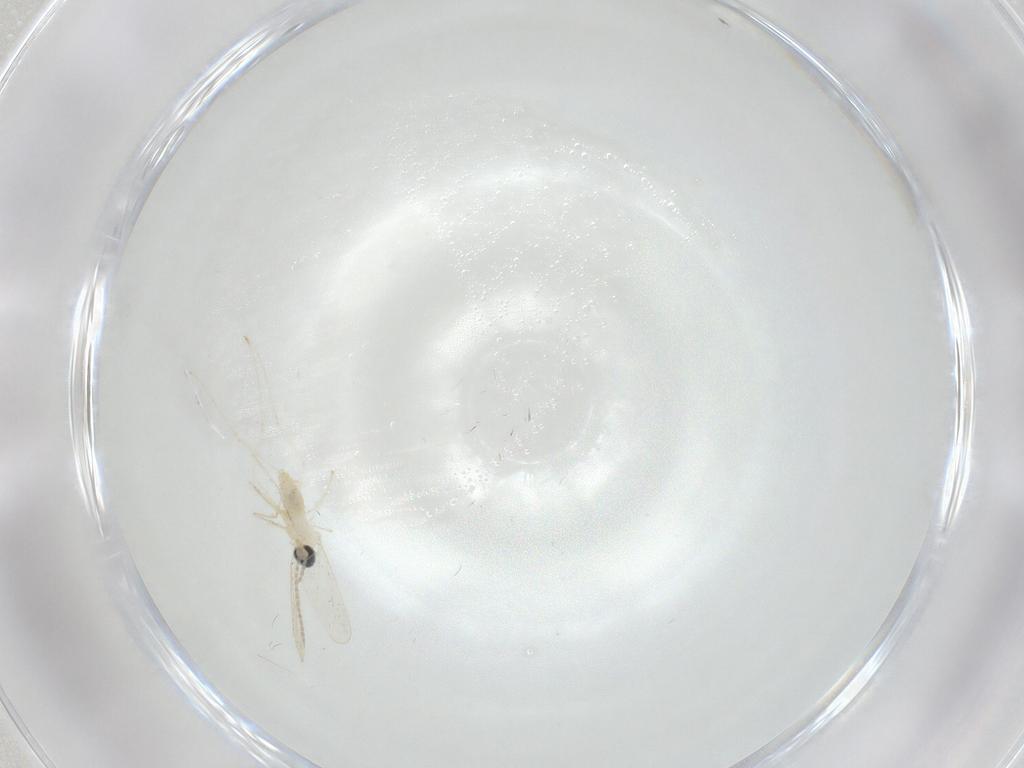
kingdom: Animalia
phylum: Arthropoda
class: Insecta
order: Diptera
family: Cecidomyiidae
